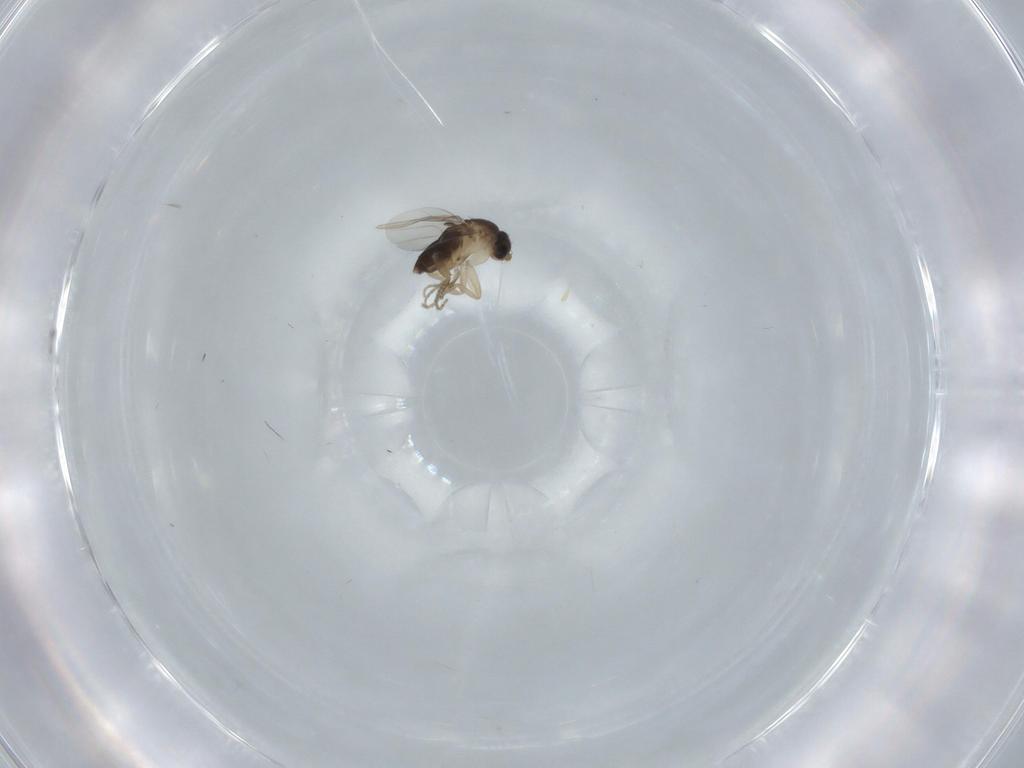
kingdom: Animalia
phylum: Arthropoda
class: Insecta
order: Diptera
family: Phoridae
